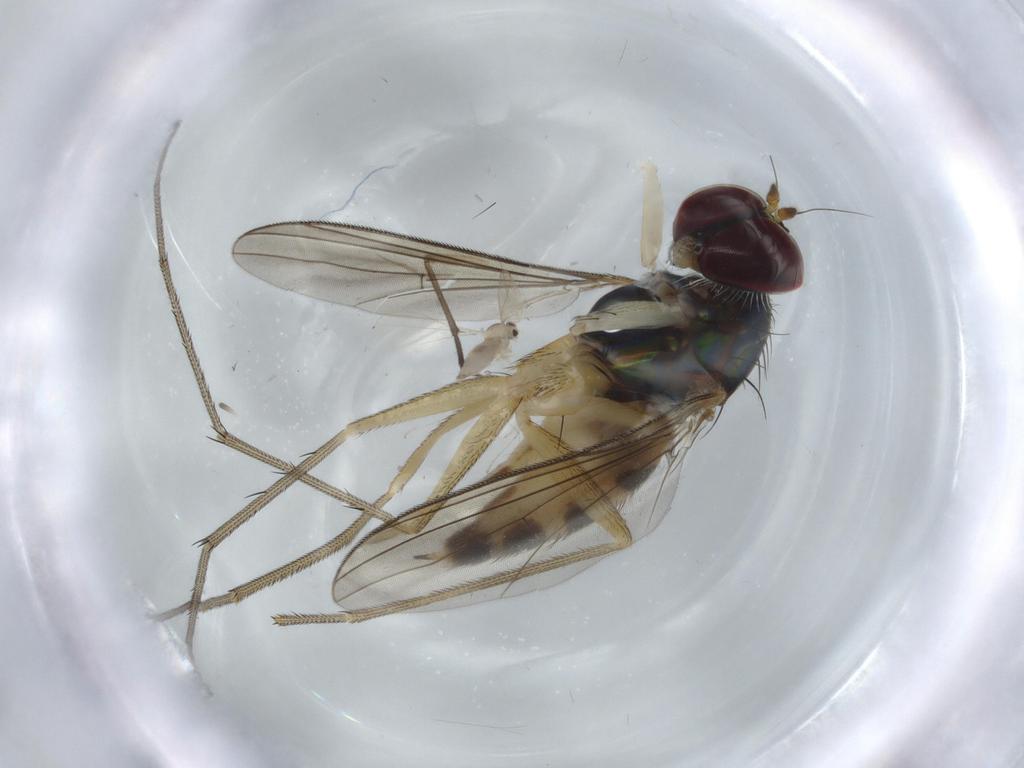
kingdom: Animalia
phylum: Arthropoda
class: Insecta
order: Diptera
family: Dolichopodidae
